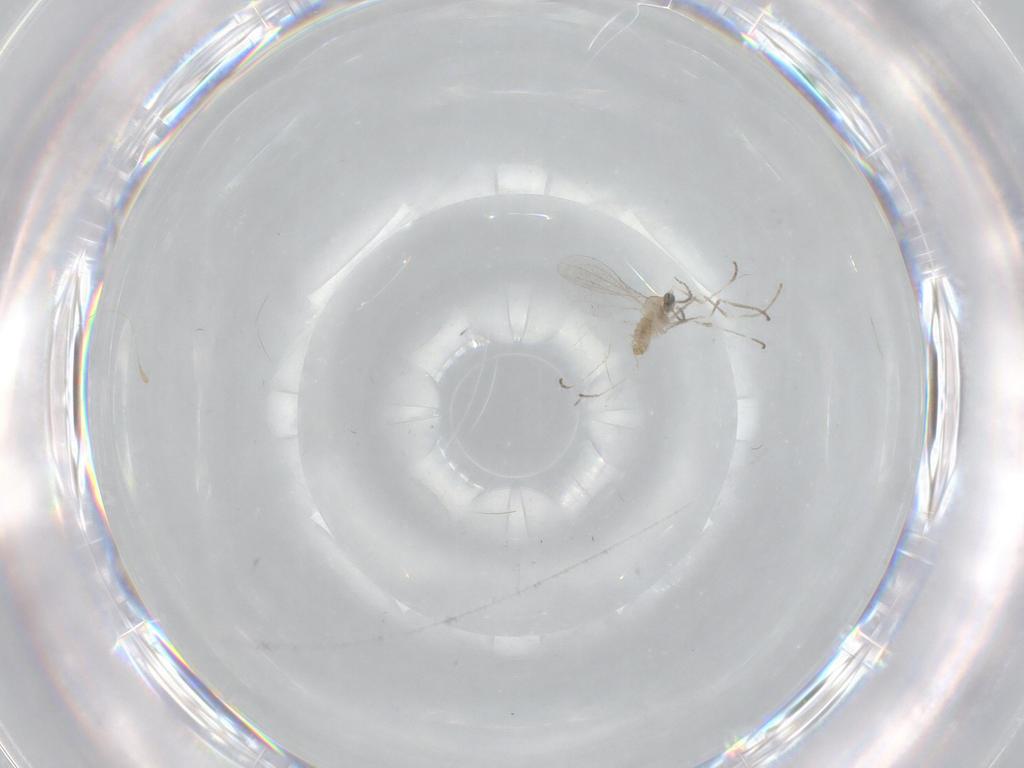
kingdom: Animalia
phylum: Arthropoda
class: Insecta
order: Diptera
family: Cecidomyiidae
